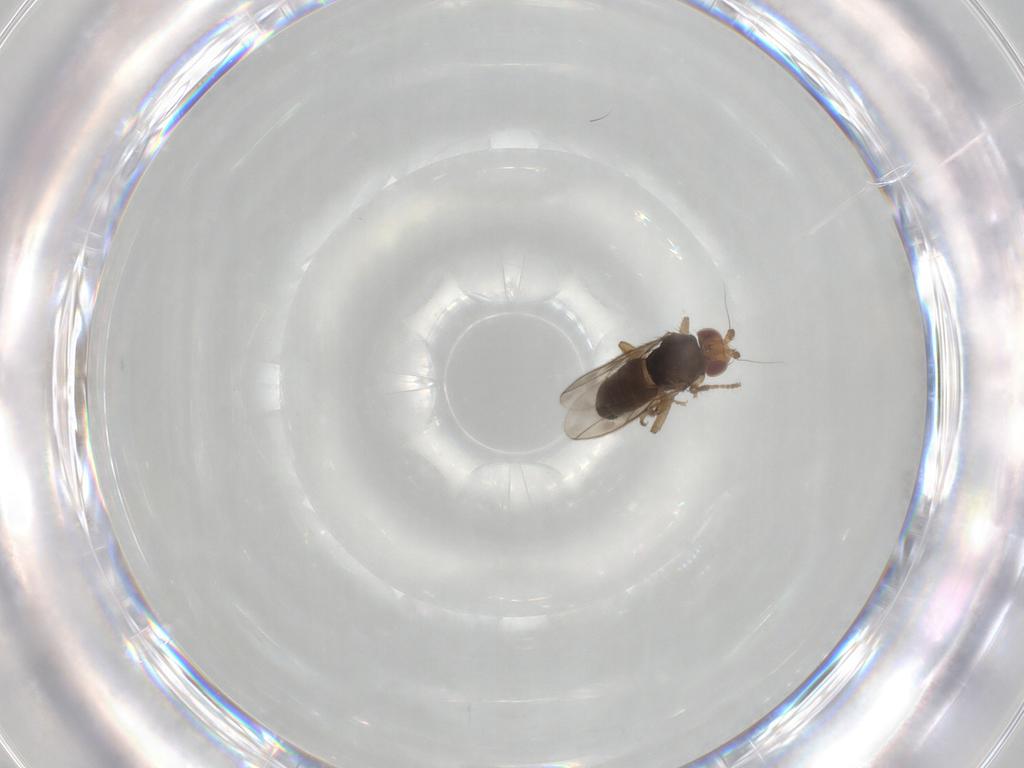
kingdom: Animalia
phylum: Arthropoda
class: Insecta
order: Diptera
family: Sphaeroceridae
